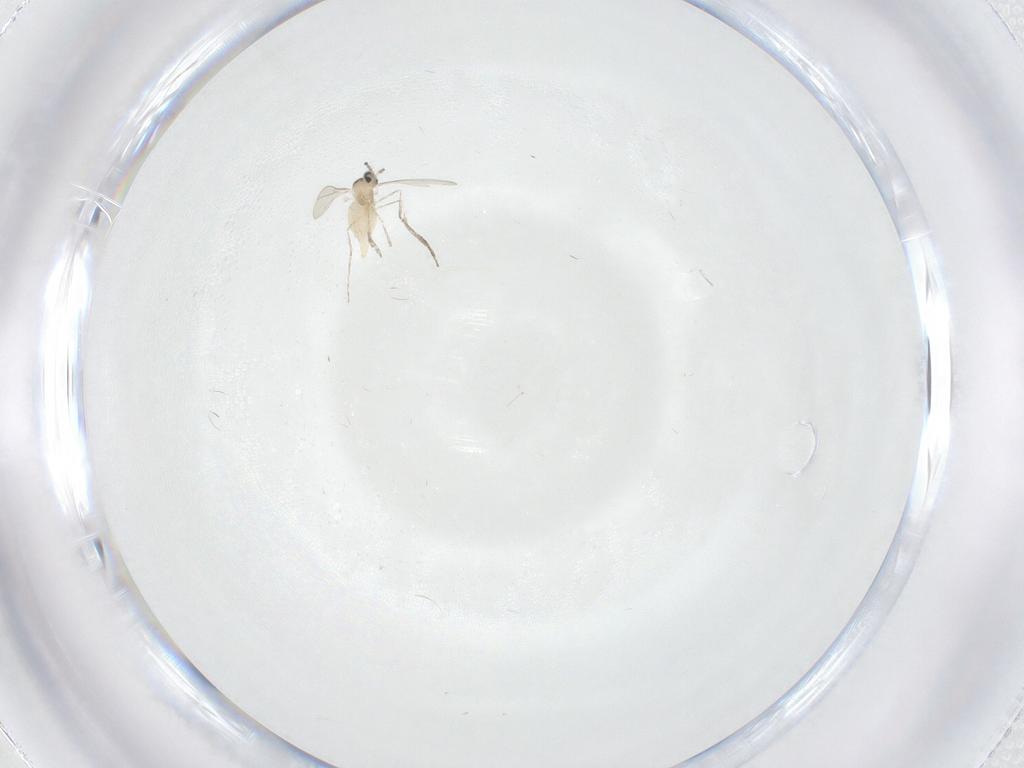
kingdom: Animalia
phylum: Arthropoda
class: Insecta
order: Diptera
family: Cecidomyiidae
